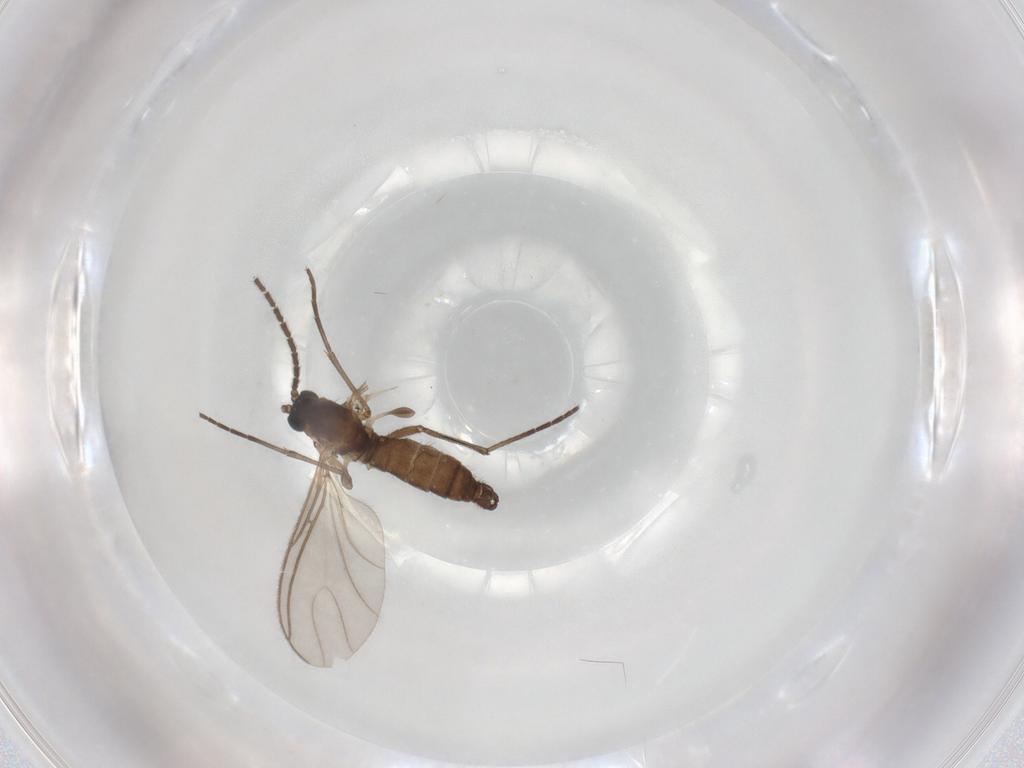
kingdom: Animalia
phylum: Arthropoda
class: Insecta
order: Diptera
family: Sciaridae
